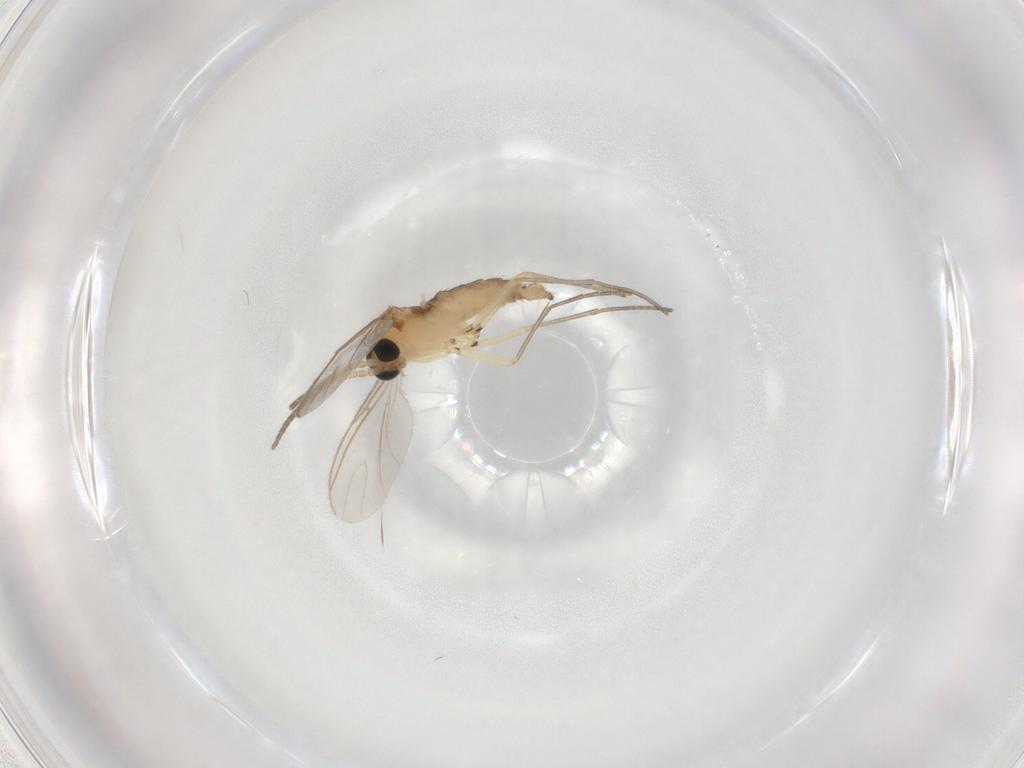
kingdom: Animalia
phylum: Arthropoda
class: Insecta
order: Diptera
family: Sciaridae
